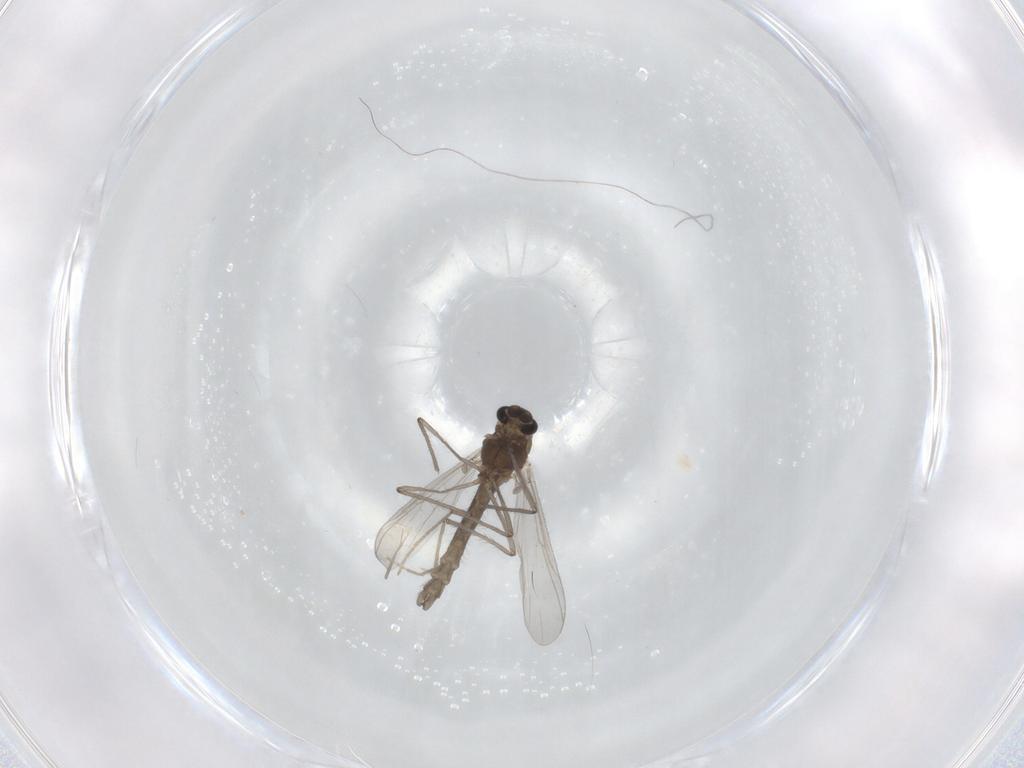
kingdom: Animalia
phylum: Arthropoda
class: Insecta
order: Diptera
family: Chironomidae
